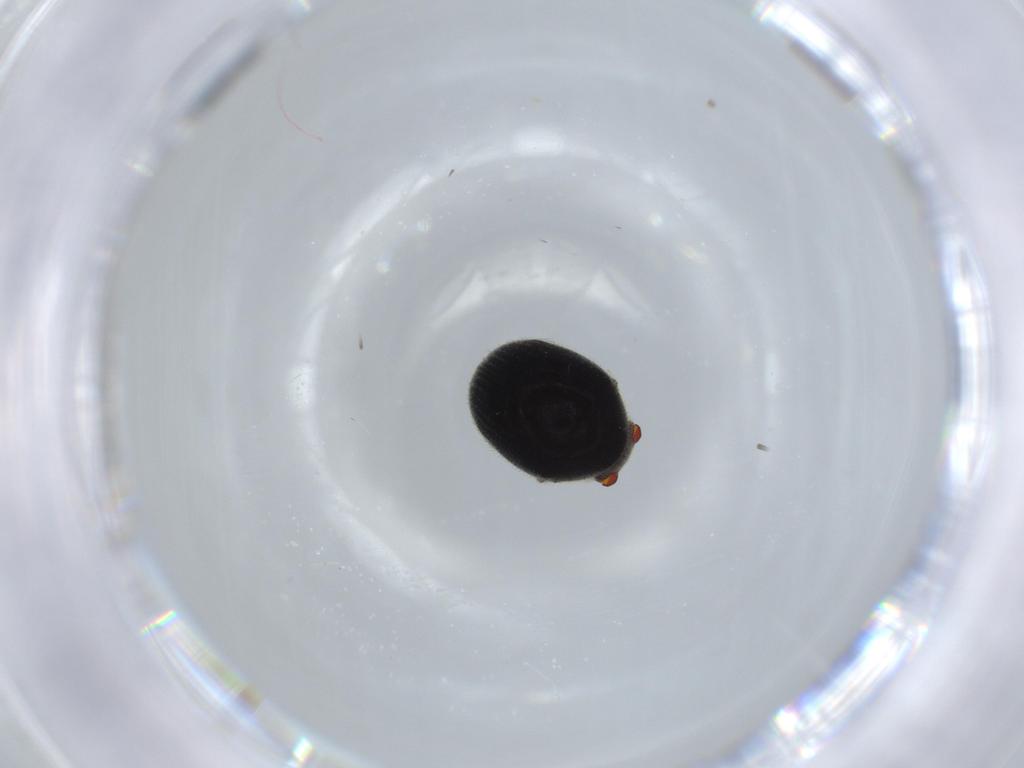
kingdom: Animalia
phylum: Arthropoda
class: Insecta
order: Coleoptera
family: Ptinidae
